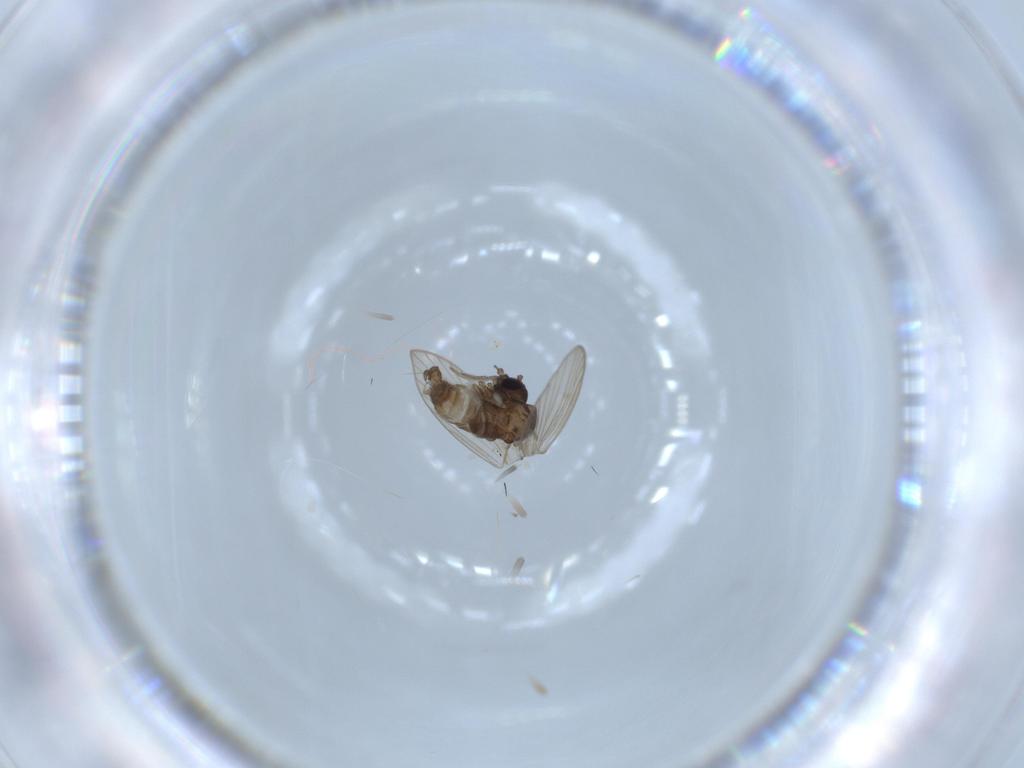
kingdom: Animalia
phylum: Arthropoda
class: Insecta
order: Diptera
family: Psychodidae
